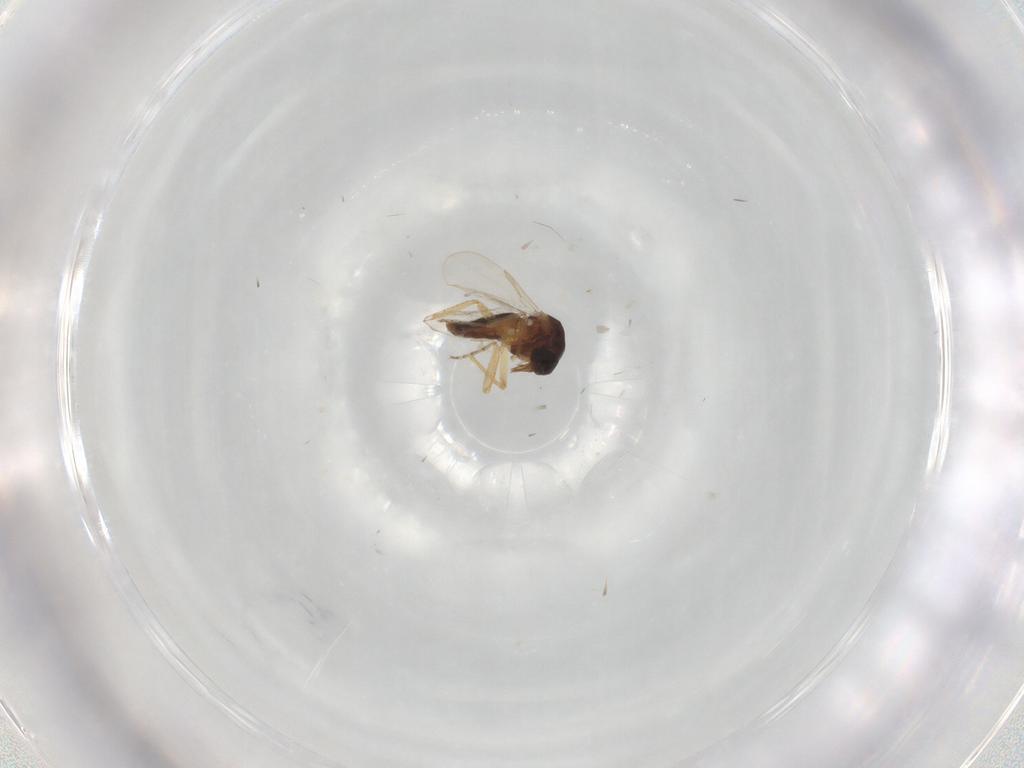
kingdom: Animalia
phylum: Arthropoda
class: Insecta
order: Diptera
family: Ceratopogonidae
